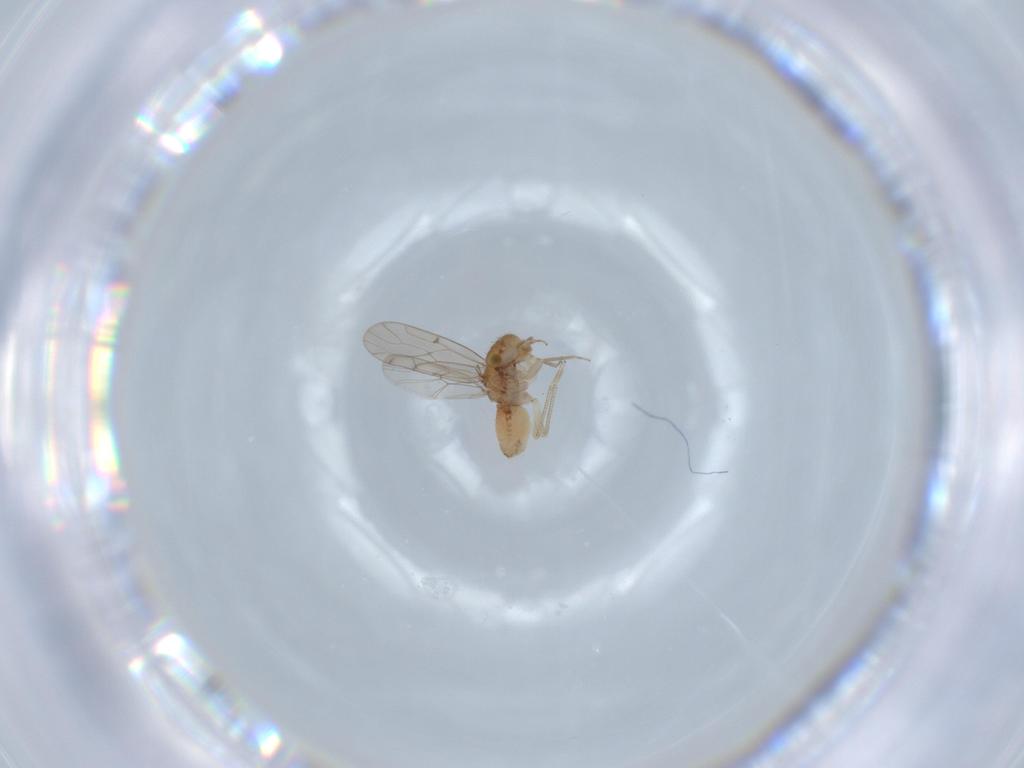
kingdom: Animalia
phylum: Arthropoda
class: Insecta
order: Psocodea
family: Ectopsocidae
